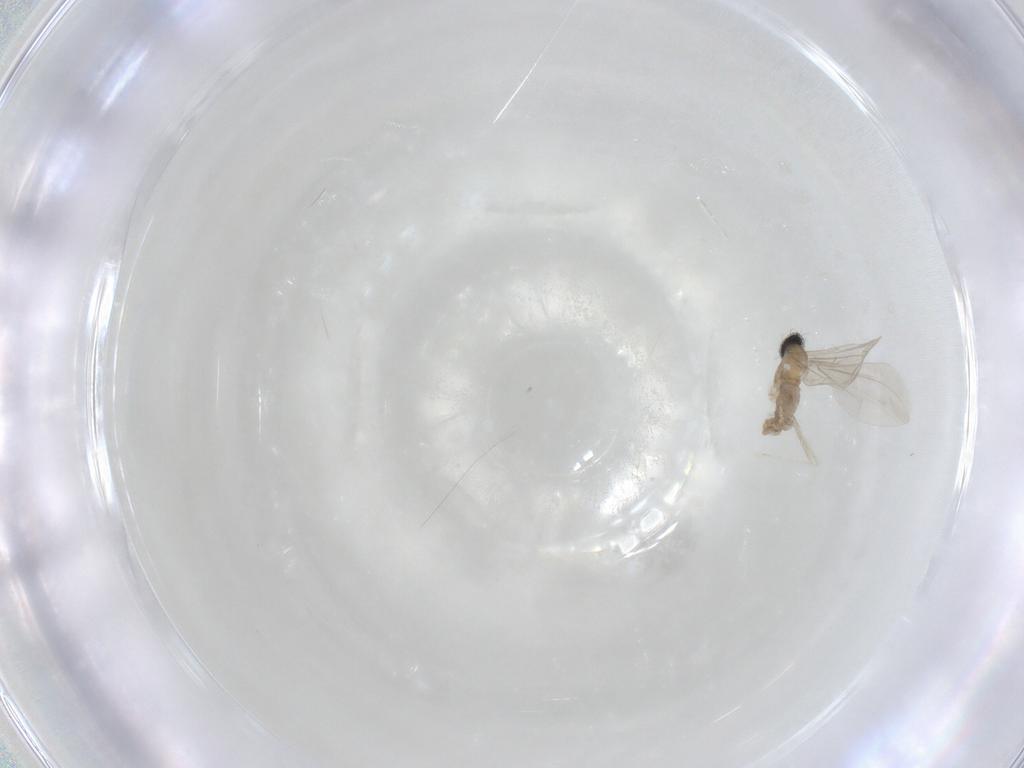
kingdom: Animalia
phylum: Arthropoda
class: Insecta
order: Diptera
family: Cecidomyiidae
